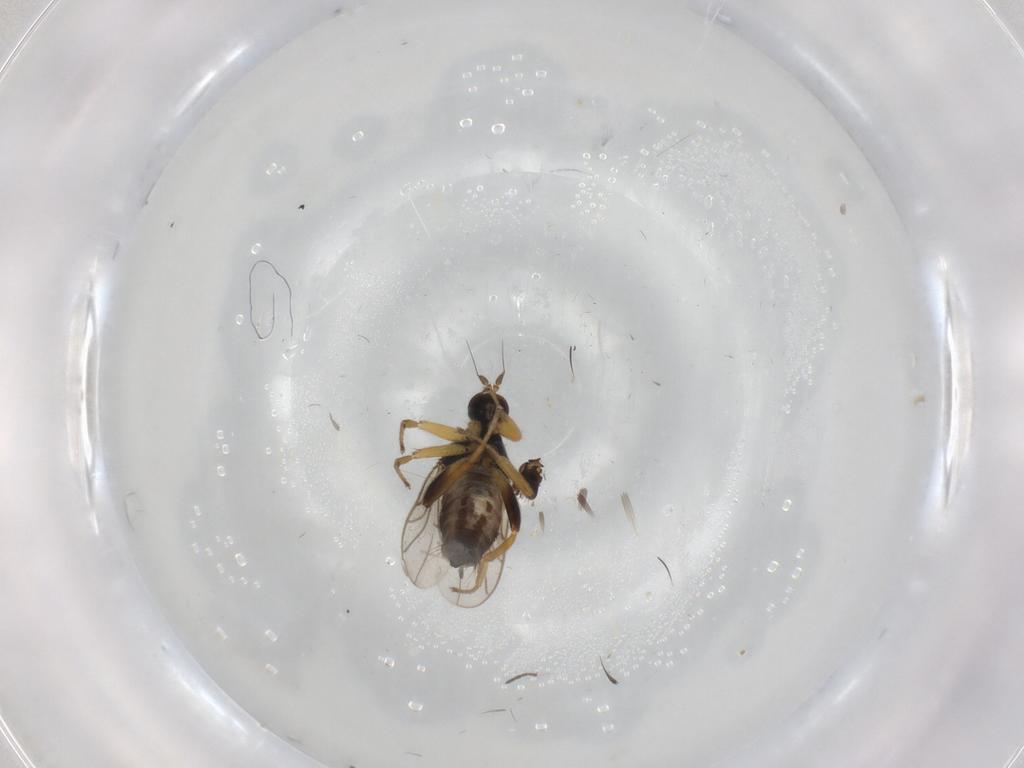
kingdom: Animalia
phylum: Arthropoda
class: Insecta
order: Diptera
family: Hybotidae
